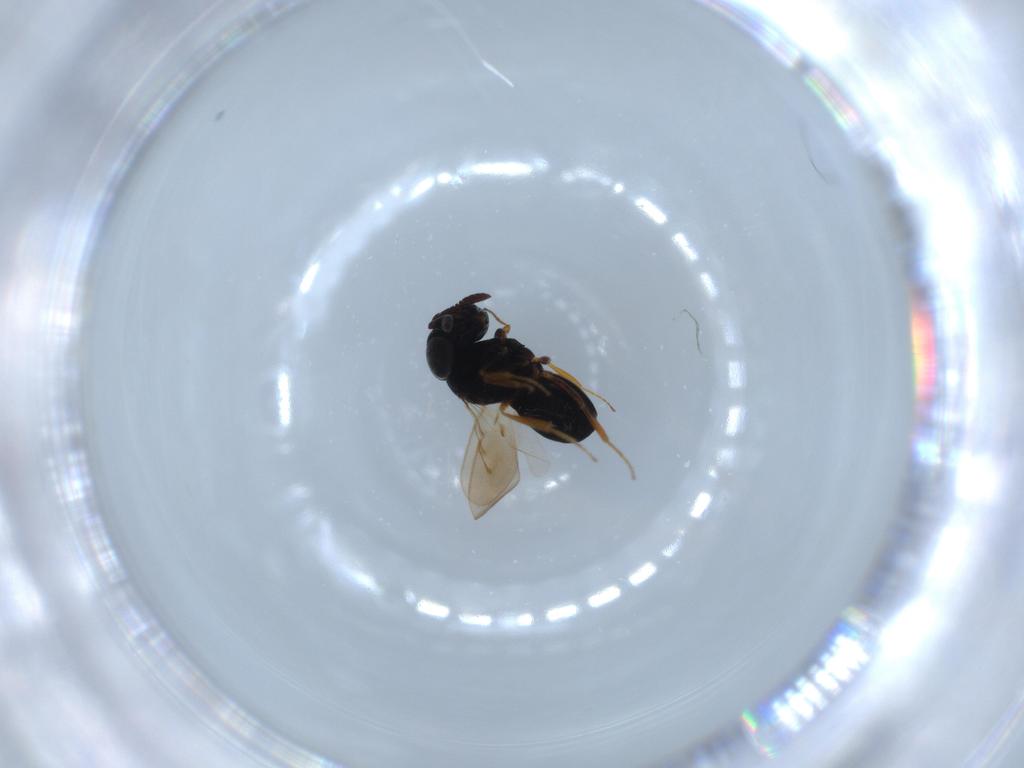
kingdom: Animalia
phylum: Arthropoda
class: Insecta
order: Hymenoptera
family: Scelionidae
